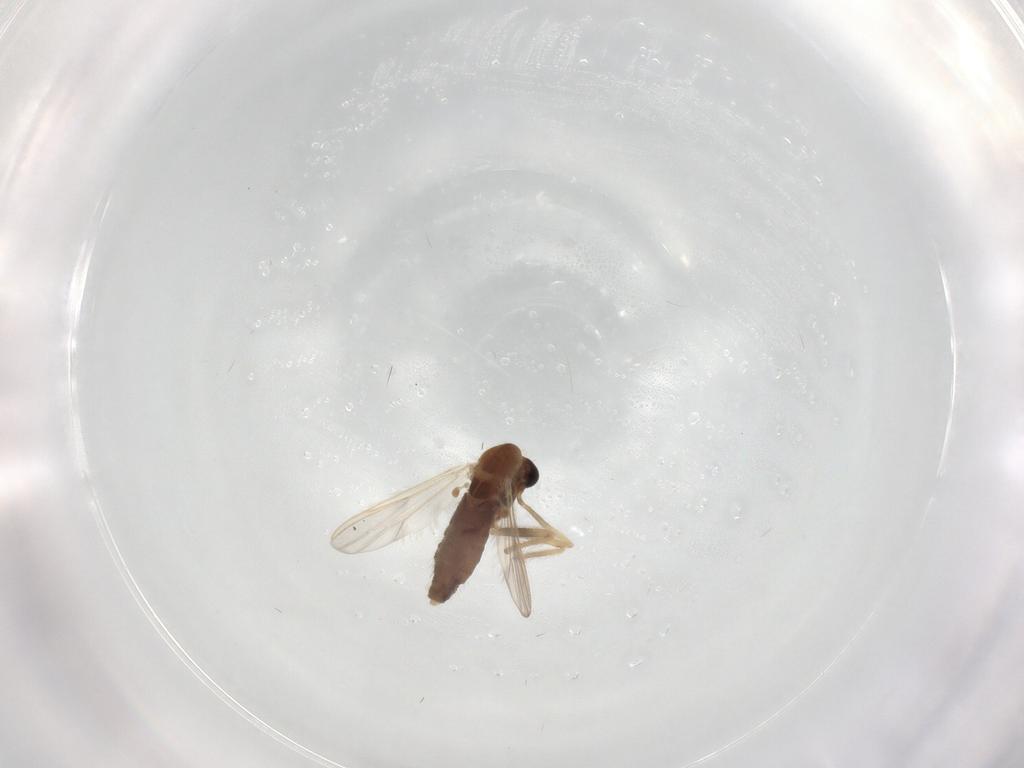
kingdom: Animalia
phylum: Arthropoda
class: Insecta
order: Diptera
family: Chironomidae
